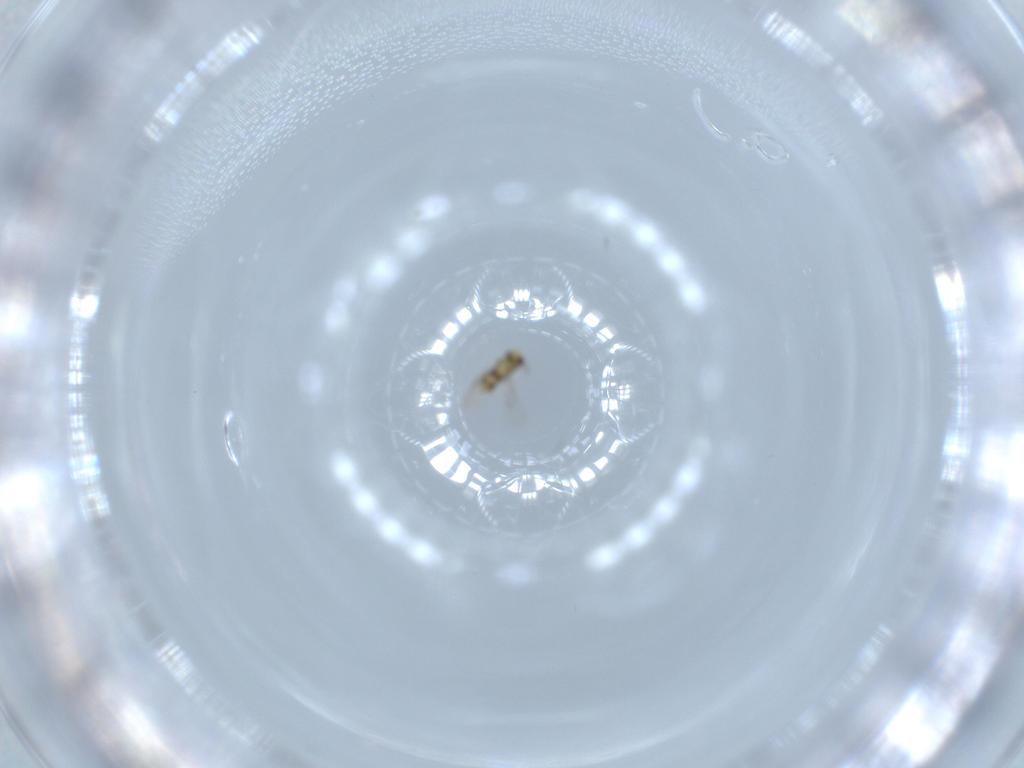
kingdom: Animalia
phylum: Arthropoda
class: Insecta
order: Hymenoptera
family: Aphelinidae
